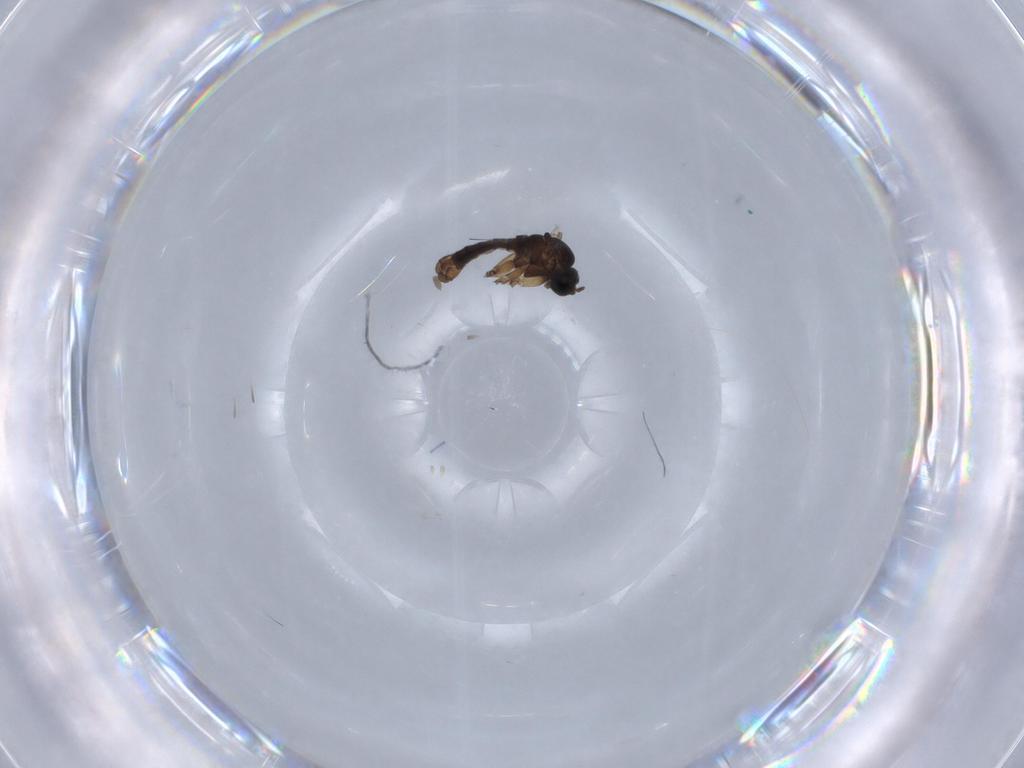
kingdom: Animalia
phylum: Arthropoda
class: Insecta
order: Diptera
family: Sciaridae
